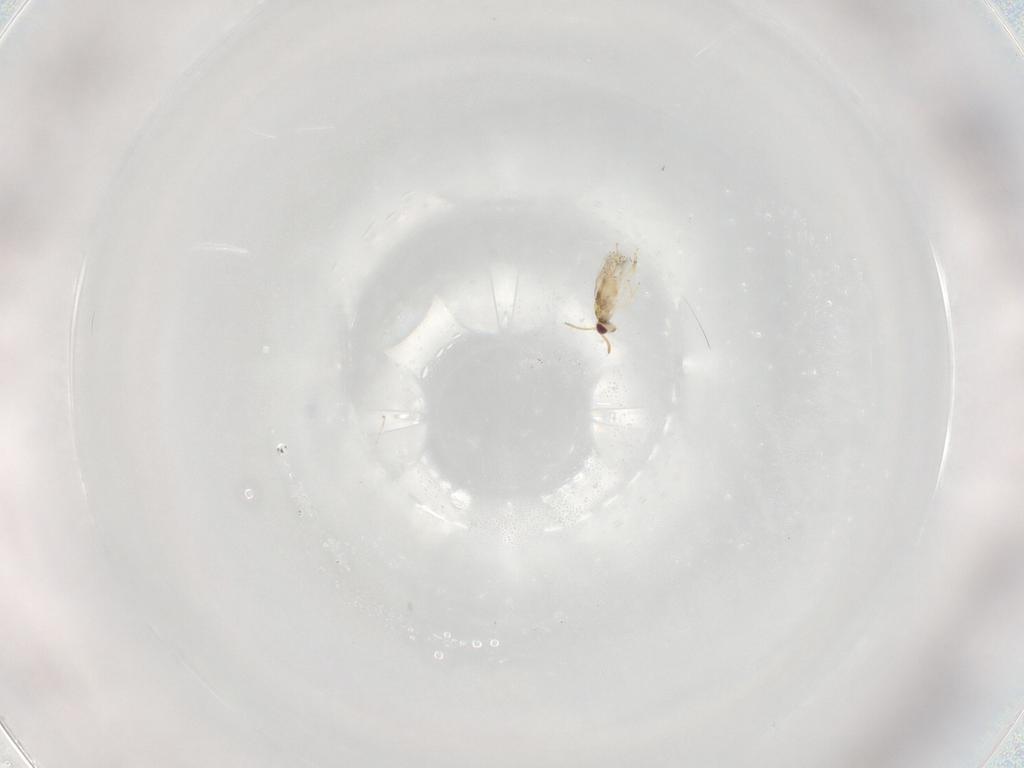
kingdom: Animalia
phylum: Arthropoda
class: Insecta
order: Hymenoptera
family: Aphelinidae
